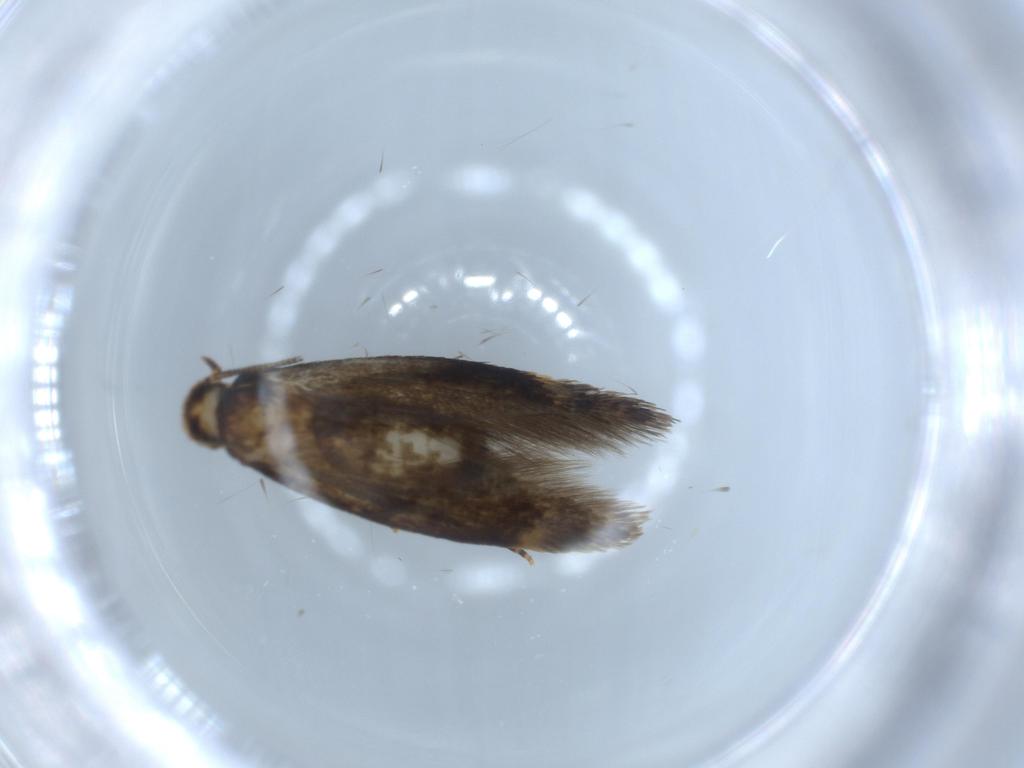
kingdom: Animalia
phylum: Arthropoda
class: Insecta
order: Lepidoptera
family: Tineidae
